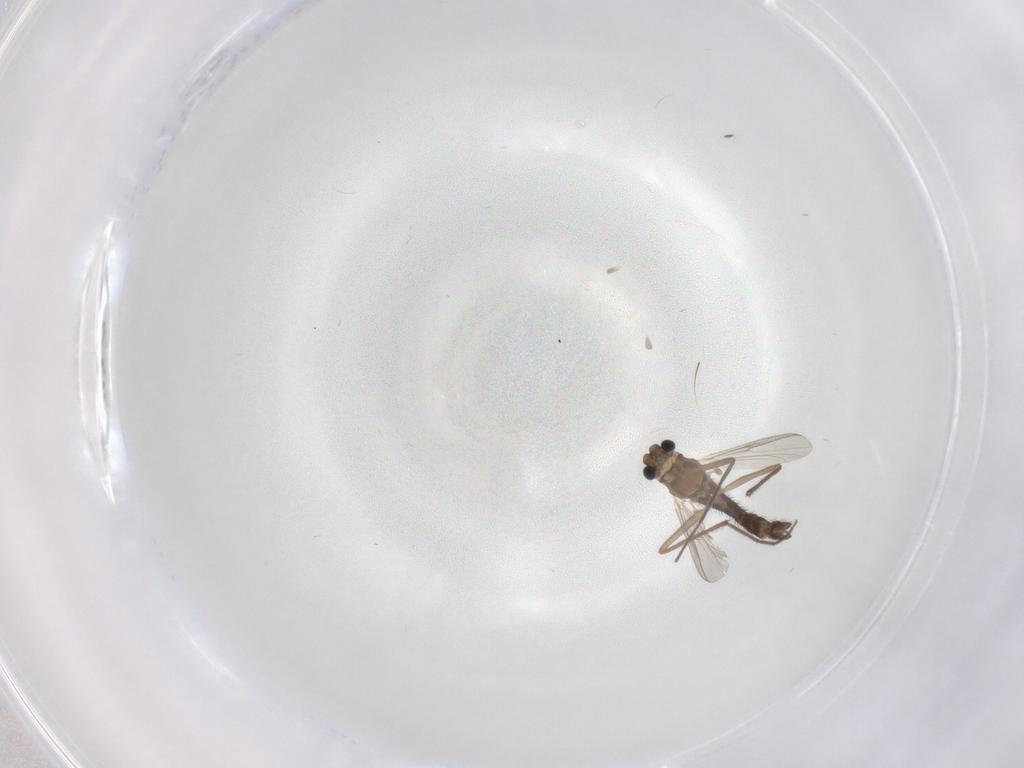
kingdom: Animalia
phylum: Arthropoda
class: Insecta
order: Diptera
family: Chironomidae
